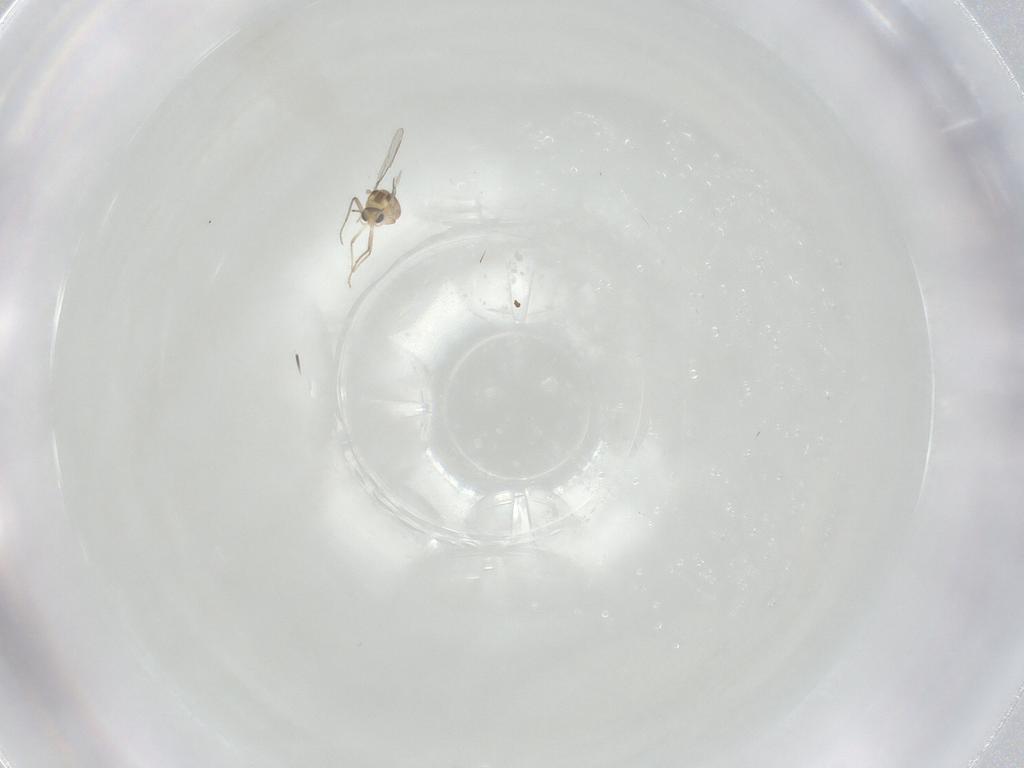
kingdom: Animalia
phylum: Arthropoda
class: Insecta
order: Diptera
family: Chironomidae
